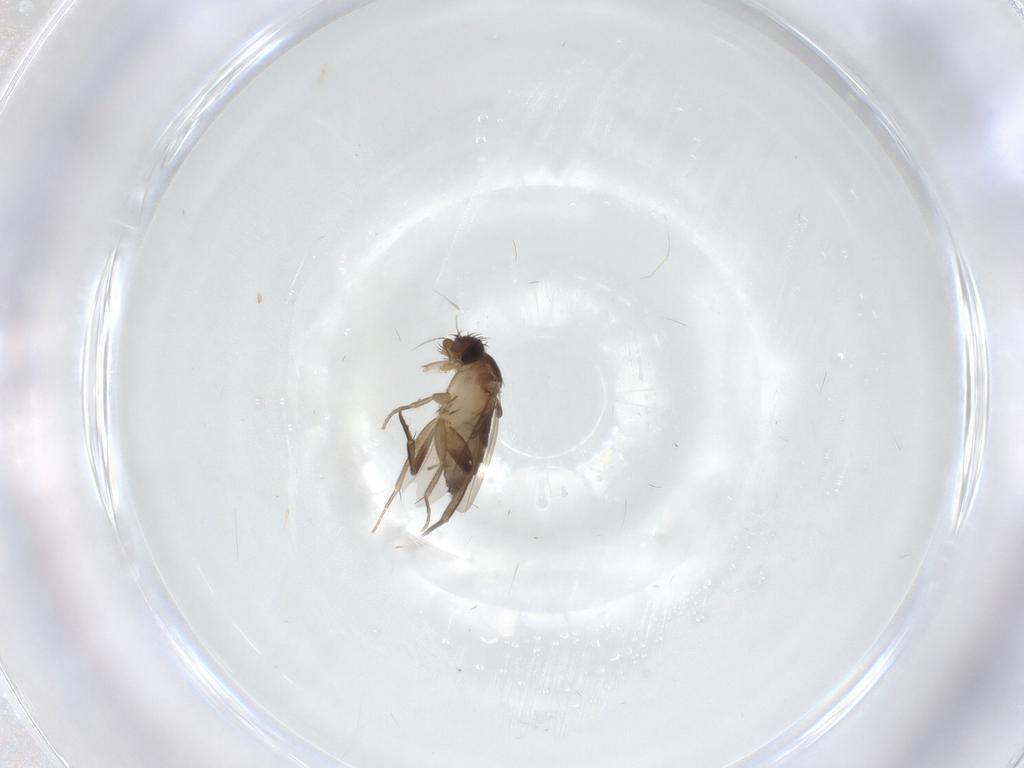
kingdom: Animalia
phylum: Arthropoda
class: Insecta
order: Diptera
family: Phoridae
